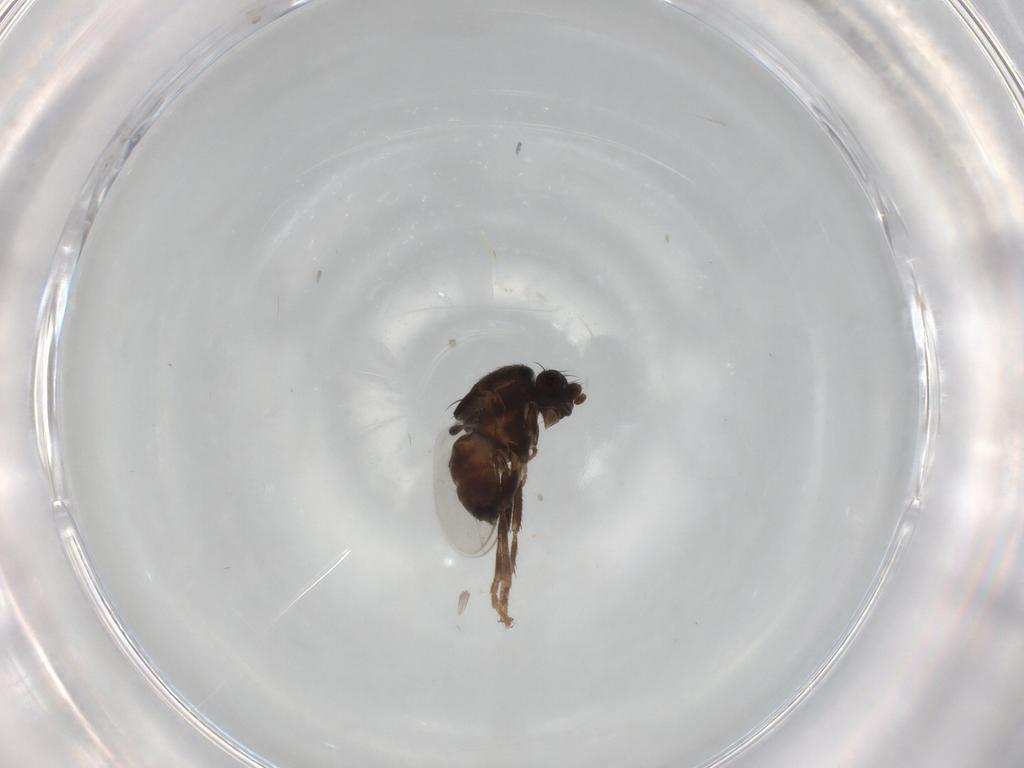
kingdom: Animalia
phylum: Arthropoda
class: Insecta
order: Diptera
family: Sphaeroceridae
